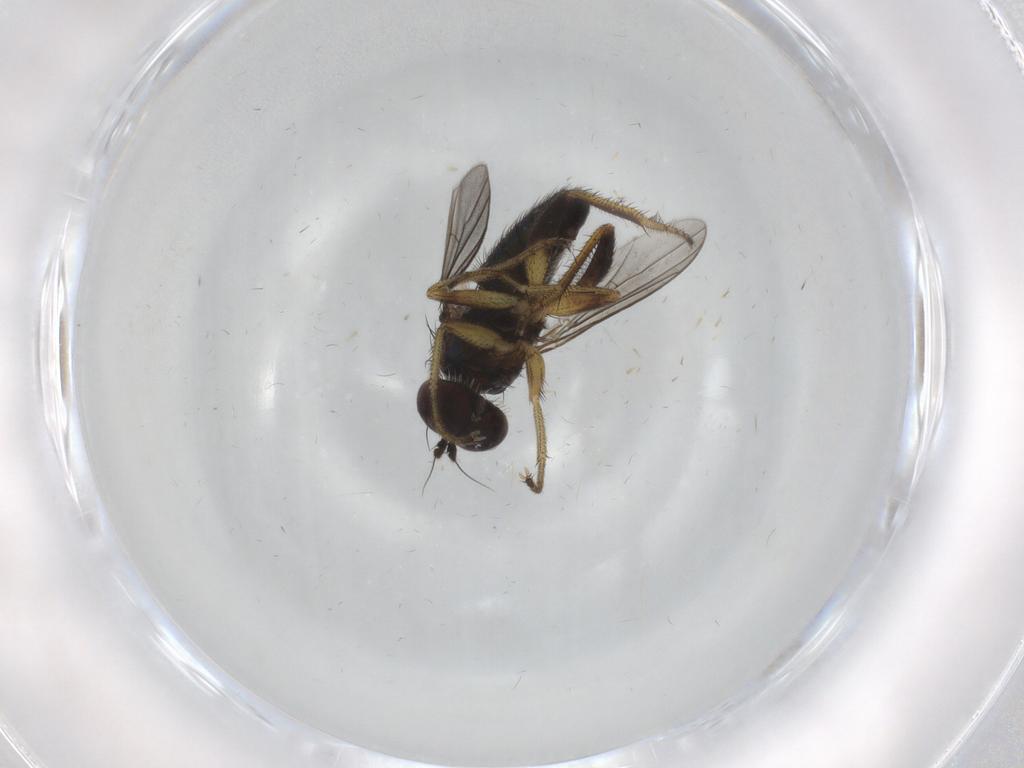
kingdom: Animalia
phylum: Arthropoda
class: Insecta
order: Diptera
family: Dolichopodidae
